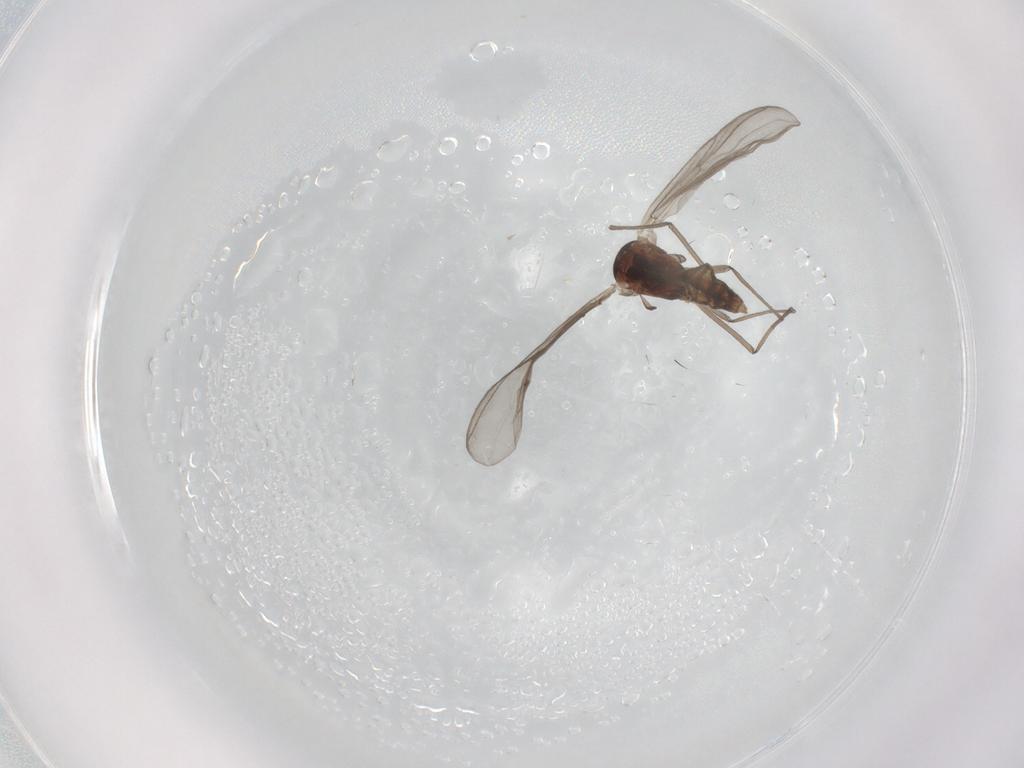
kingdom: Animalia
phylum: Arthropoda
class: Insecta
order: Diptera
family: Chironomidae
